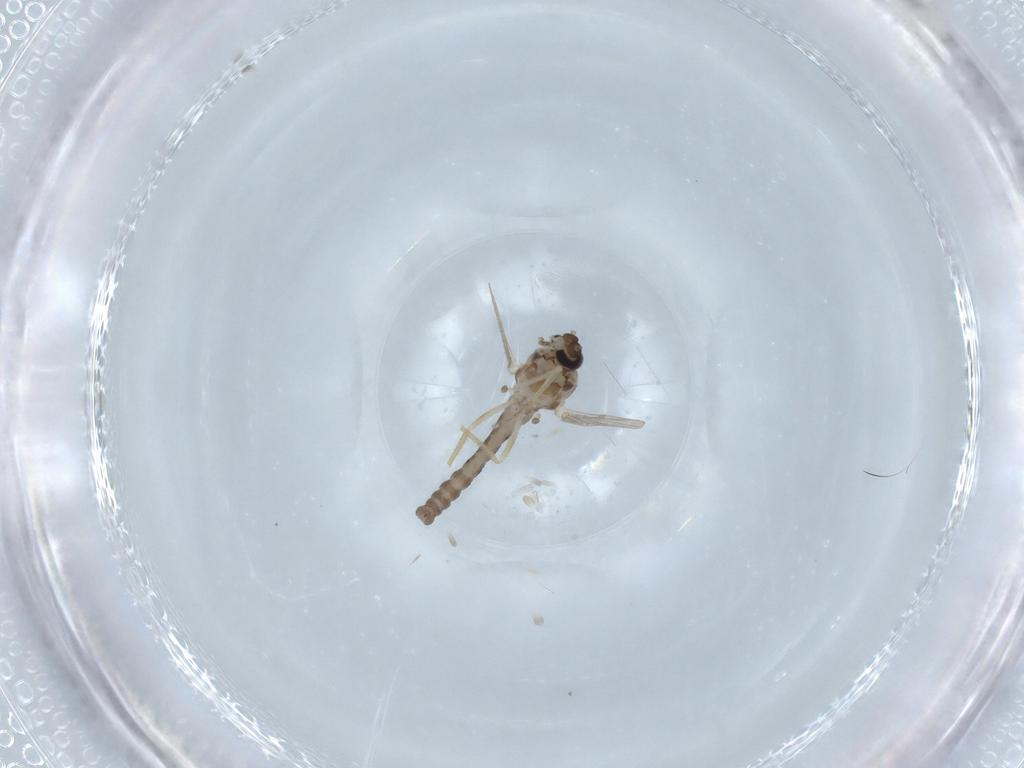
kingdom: Animalia
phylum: Arthropoda
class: Insecta
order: Diptera
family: Ceratopogonidae
